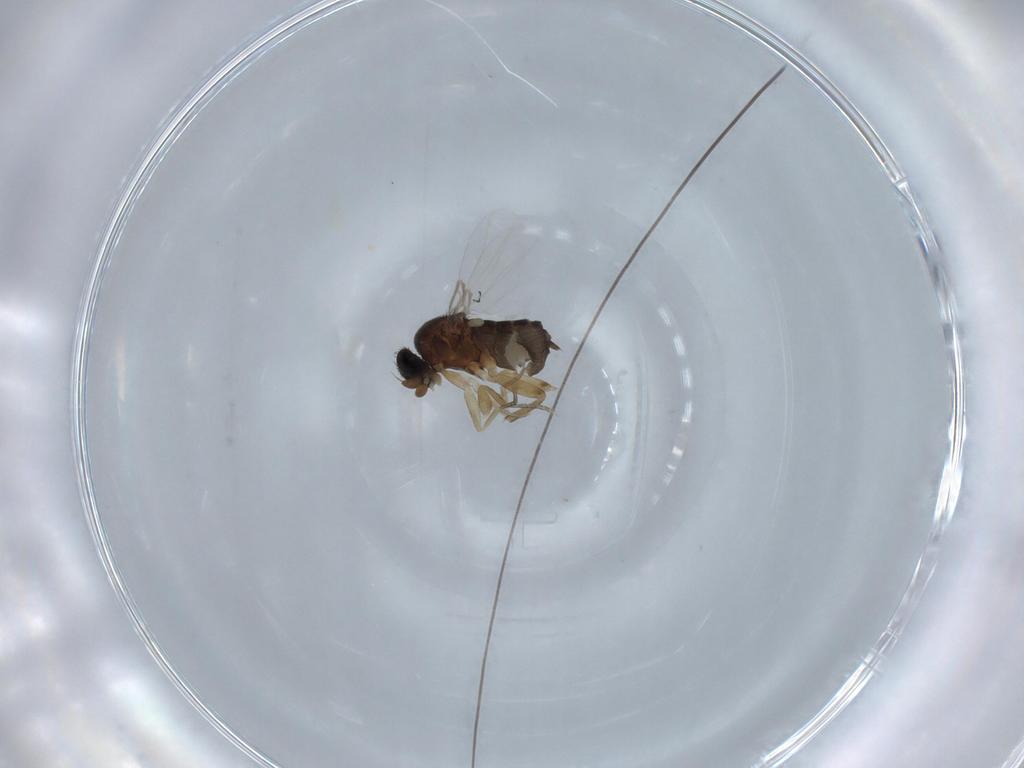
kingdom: Animalia
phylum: Arthropoda
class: Insecta
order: Diptera
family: Phoridae
